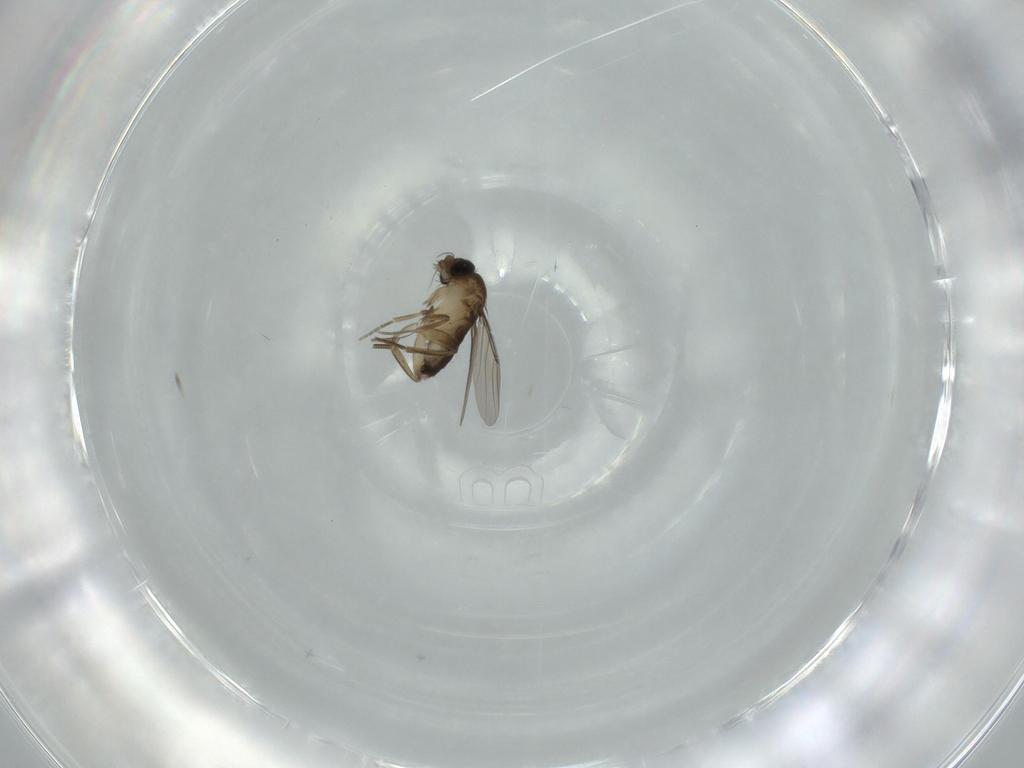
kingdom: Animalia
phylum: Arthropoda
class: Insecta
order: Diptera
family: Phoridae
